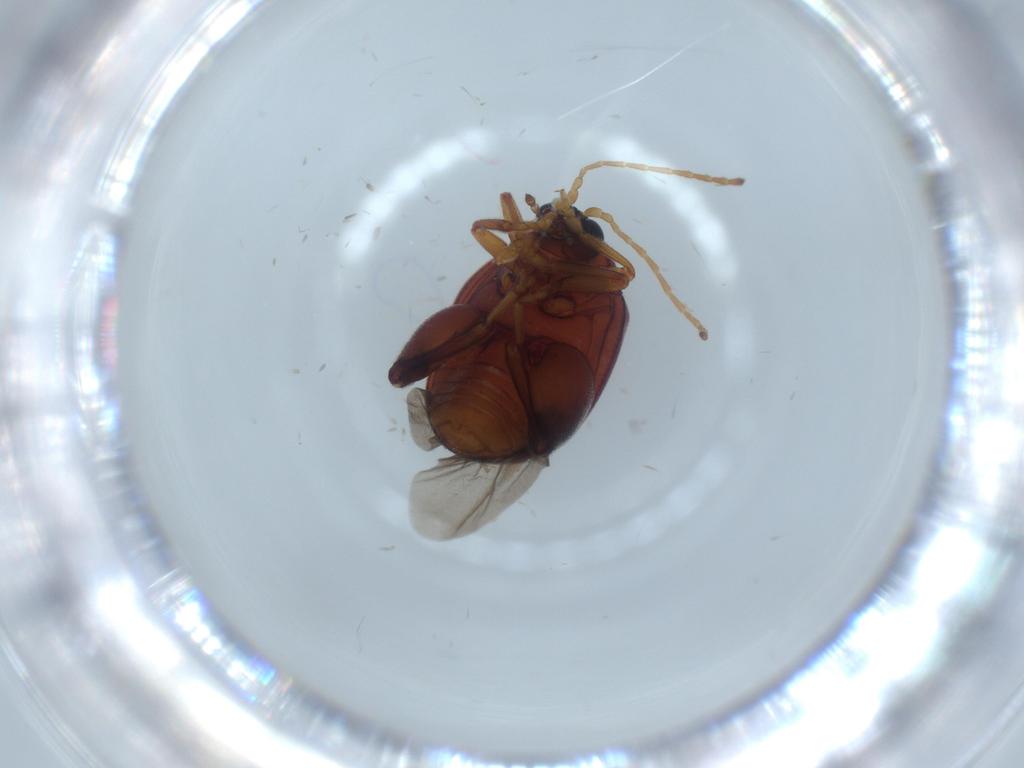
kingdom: Animalia
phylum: Arthropoda
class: Insecta
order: Coleoptera
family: Chrysomelidae
